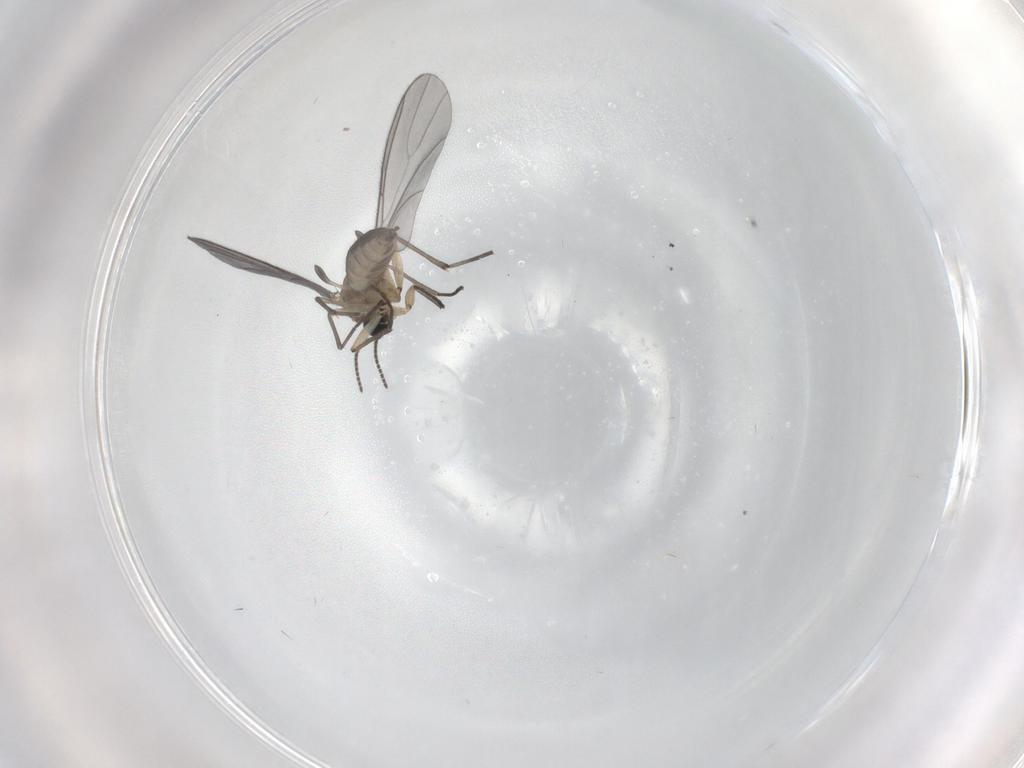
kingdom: Animalia
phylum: Arthropoda
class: Insecta
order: Diptera
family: Sciaridae
